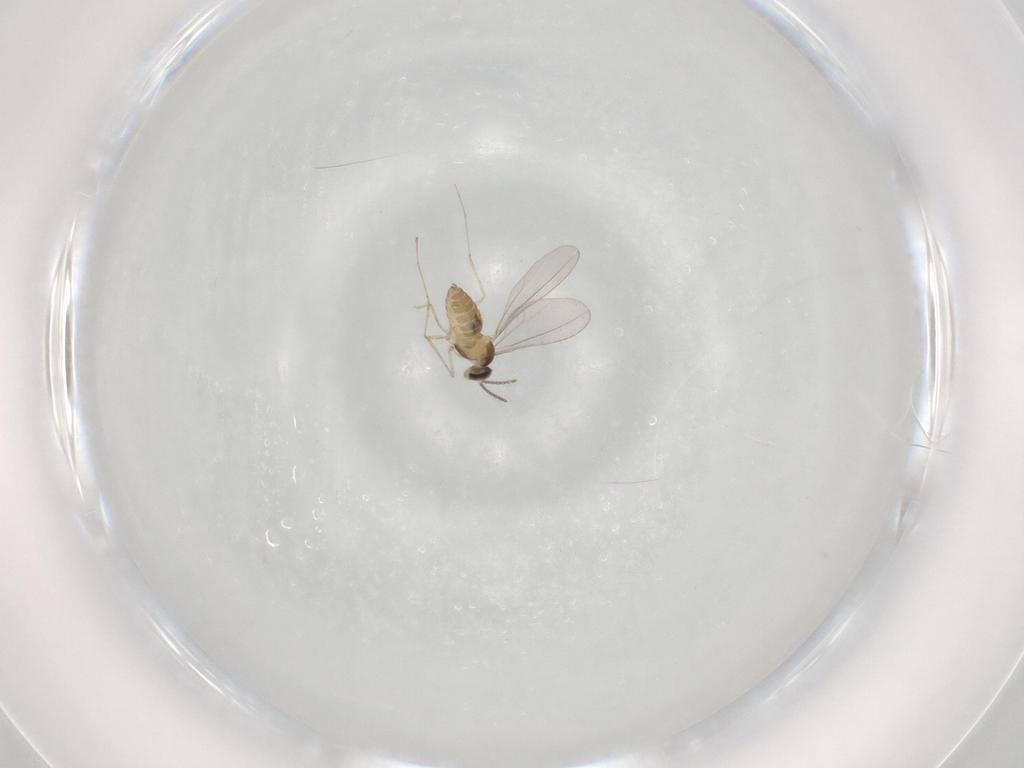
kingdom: Animalia
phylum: Arthropoda
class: Insecta
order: Diptera
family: Cecidomyiidae
